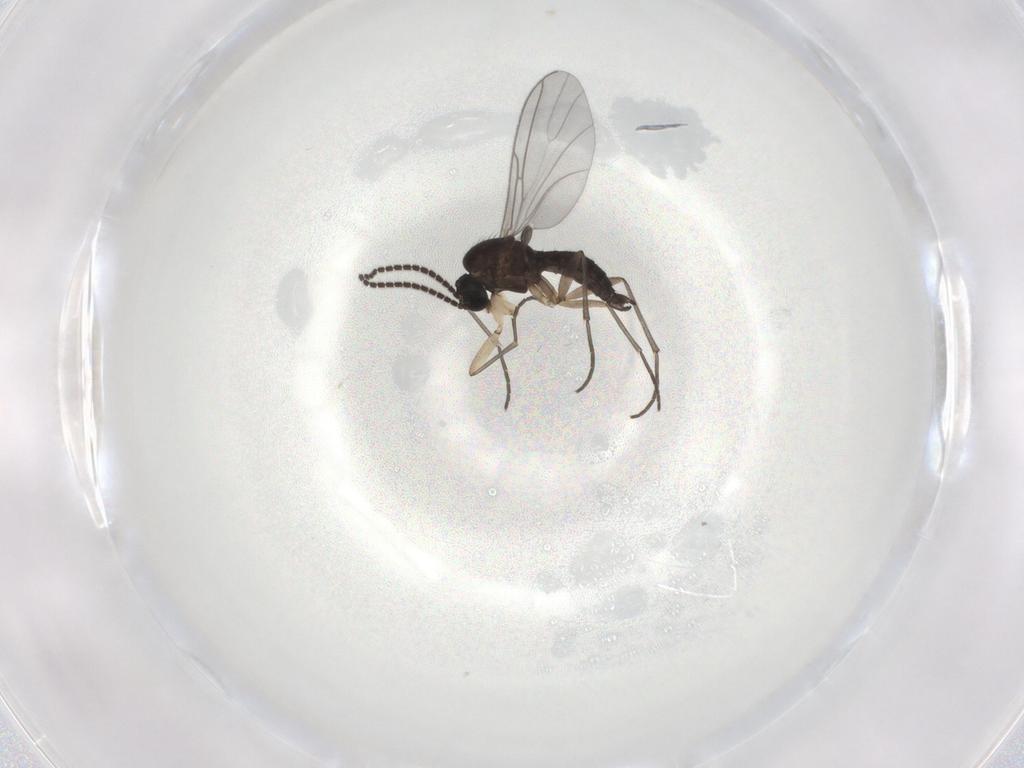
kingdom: Animalia
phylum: Arthropoda
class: Insecta
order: Diptera
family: Sciaridae
